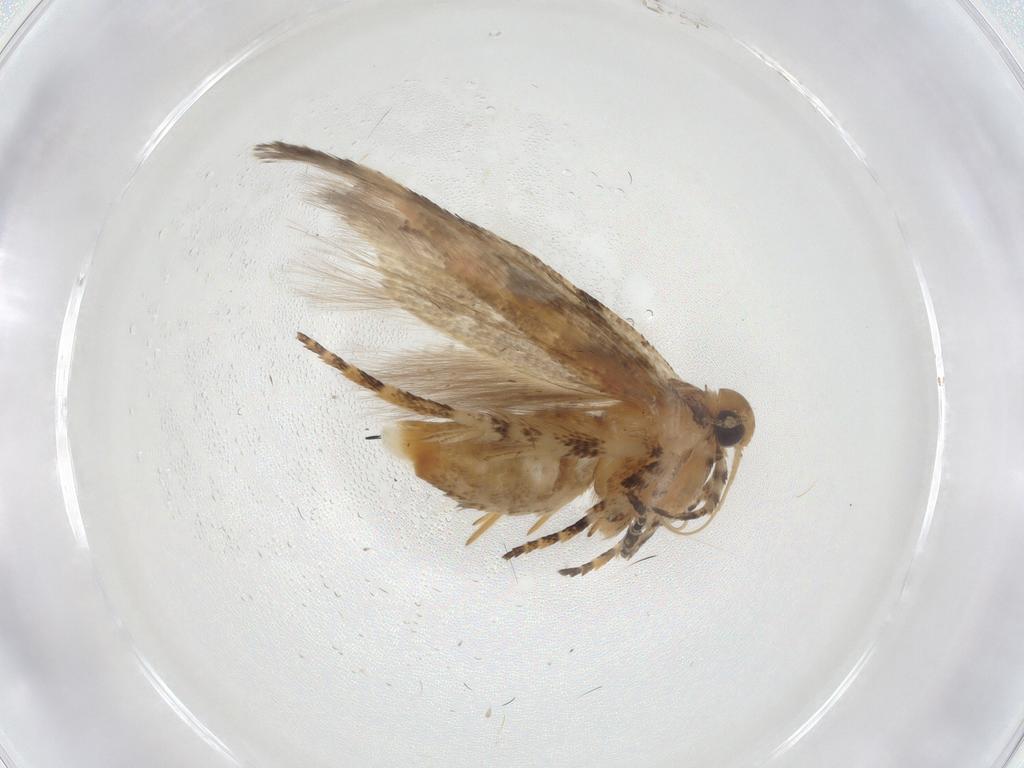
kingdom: Animalia
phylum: Arthropoda
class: Insecta
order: Lepidoptera
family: Gelechiidae
